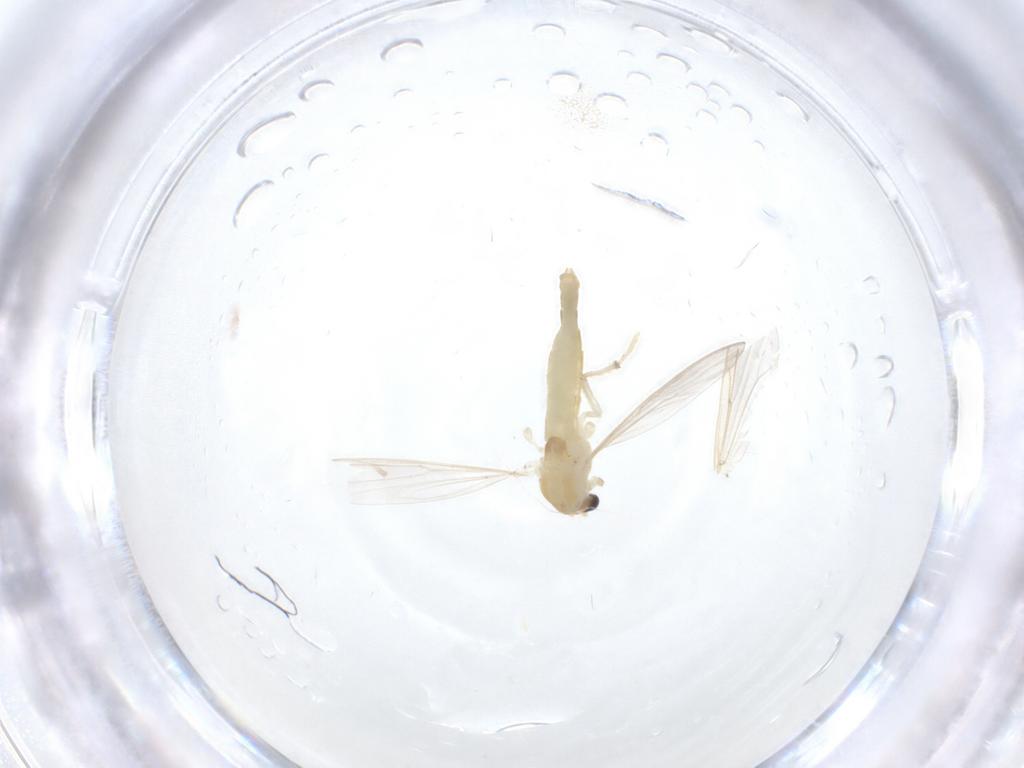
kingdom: Animalia
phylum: Arthropoda
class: Insecta
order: Diptera
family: Chironomidae
